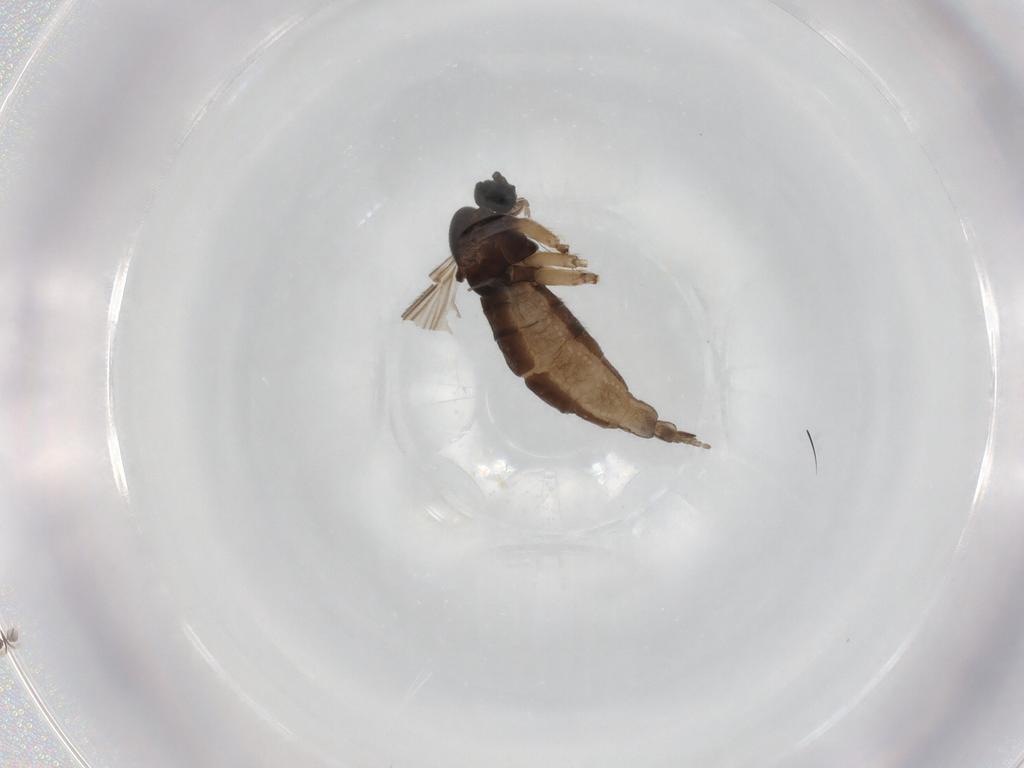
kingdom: Animalia
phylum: Arthropoda
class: Insecta
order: Diptera
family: Sciaridae
